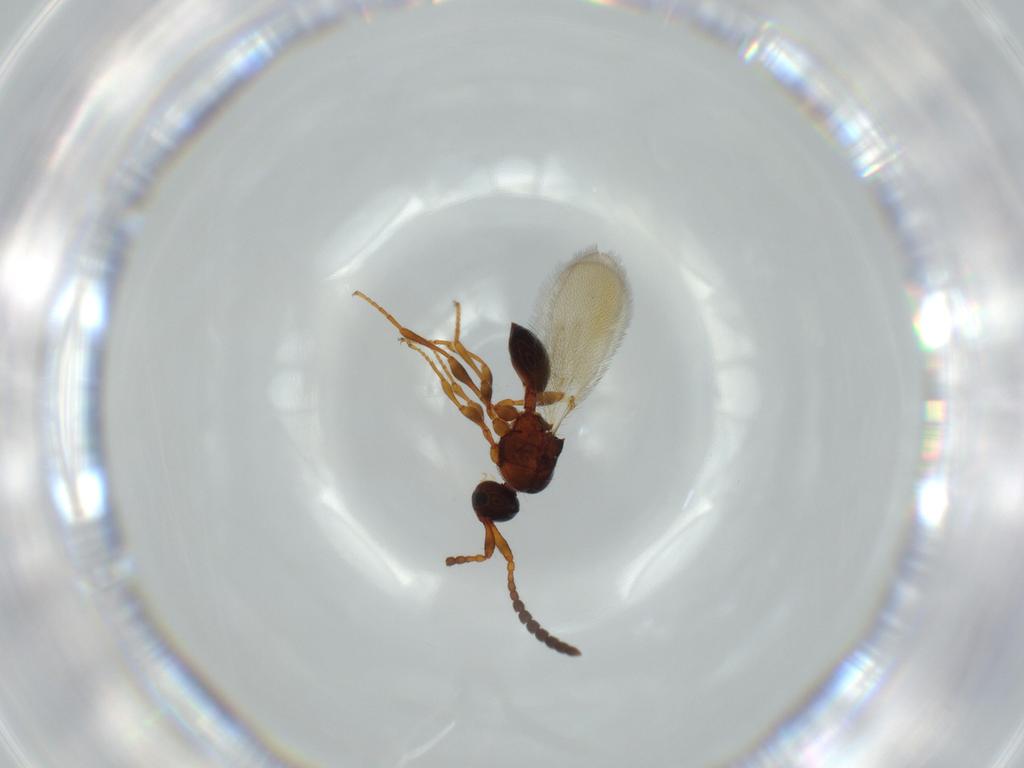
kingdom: Animalia
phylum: Arthropoda
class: Insecta
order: Hymenoptera
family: Diapriidae
